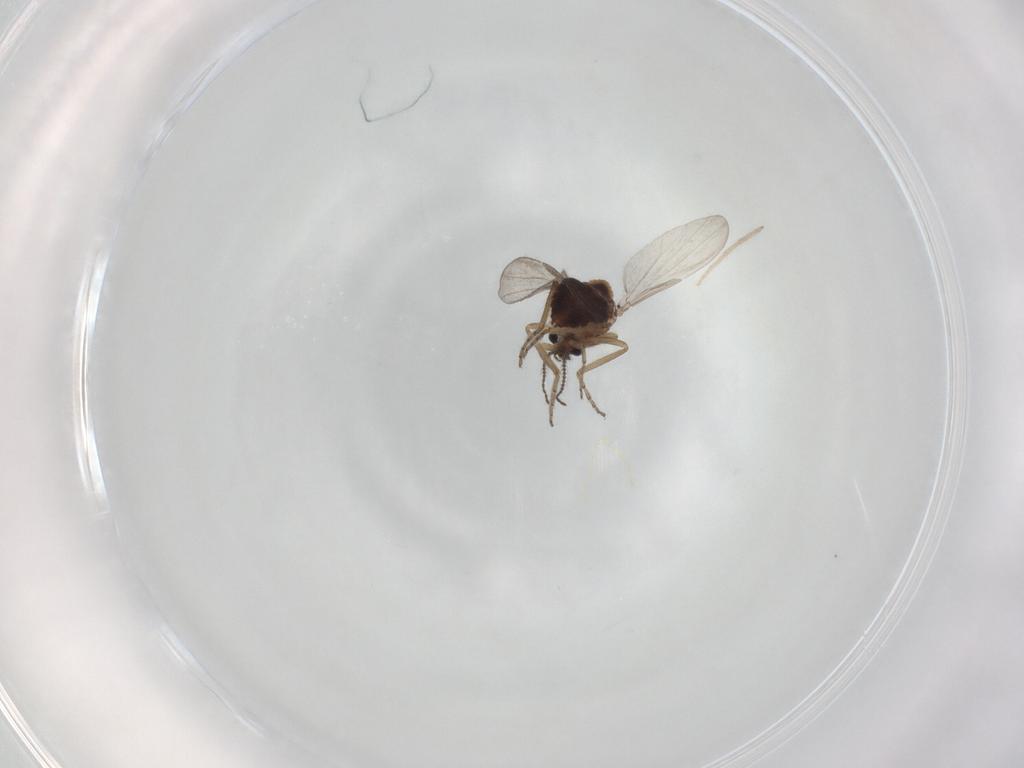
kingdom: Animalia
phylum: Arthropoda
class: Insecta
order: Diptera
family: Ceratopogonidae
